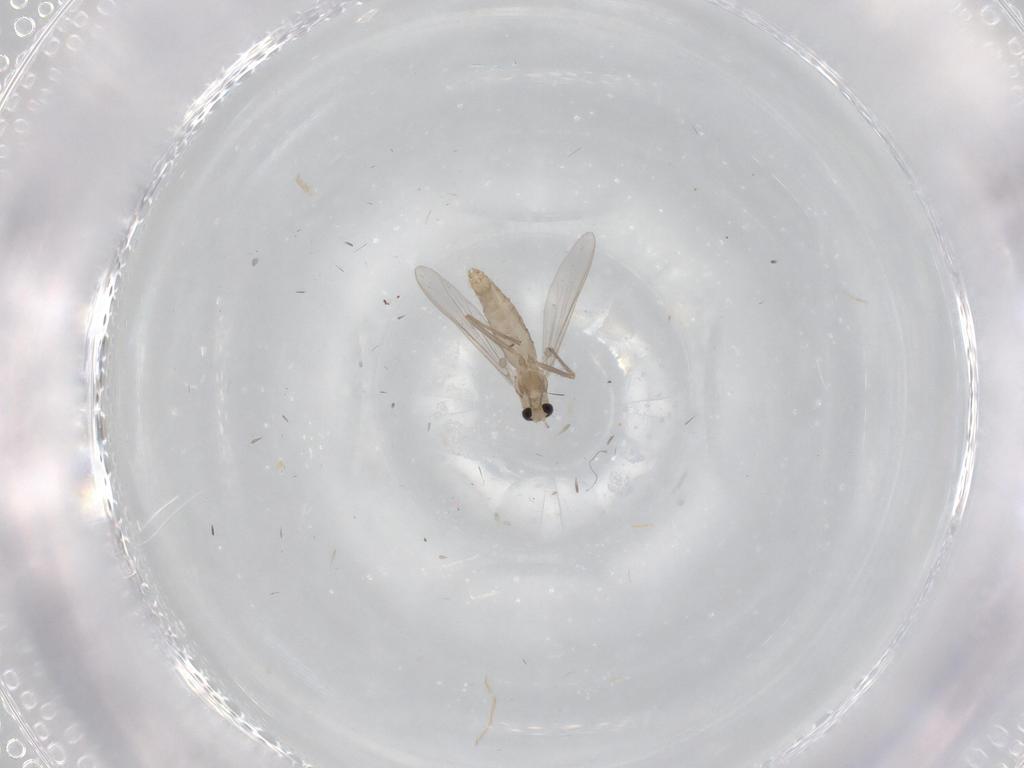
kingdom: Animalia
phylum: Arthropoda
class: Insecta
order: Diptera
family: Chironomidae
